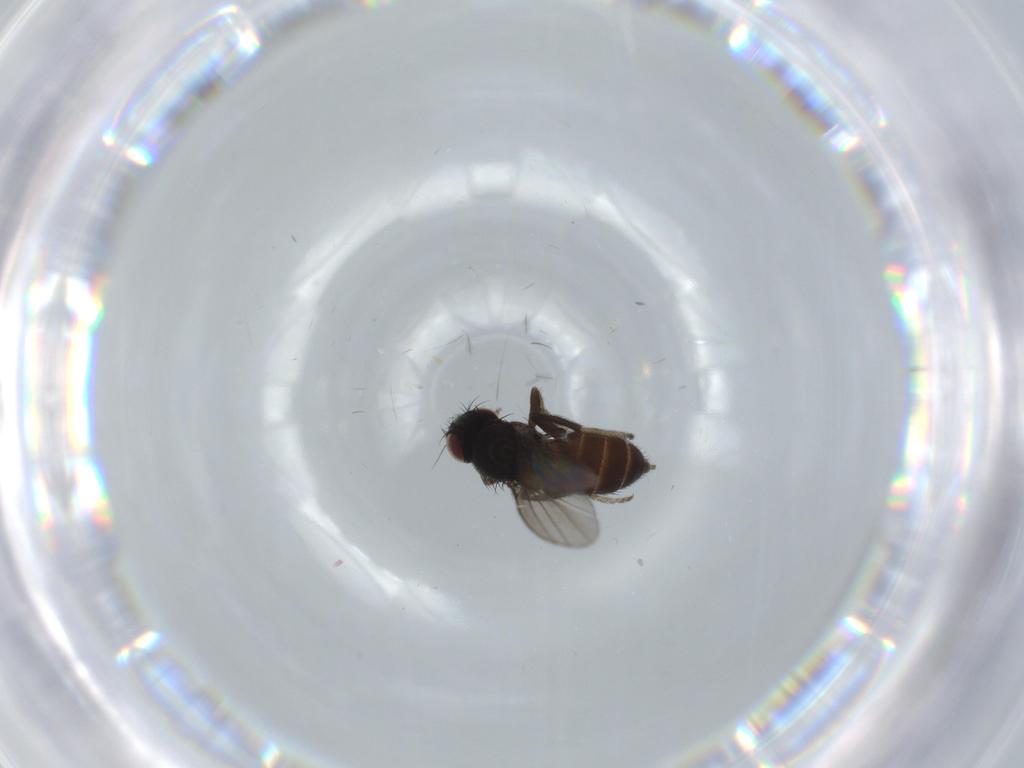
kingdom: Animalia
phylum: Arthropoda
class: Insecta
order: Diptera
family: Milichiidae
